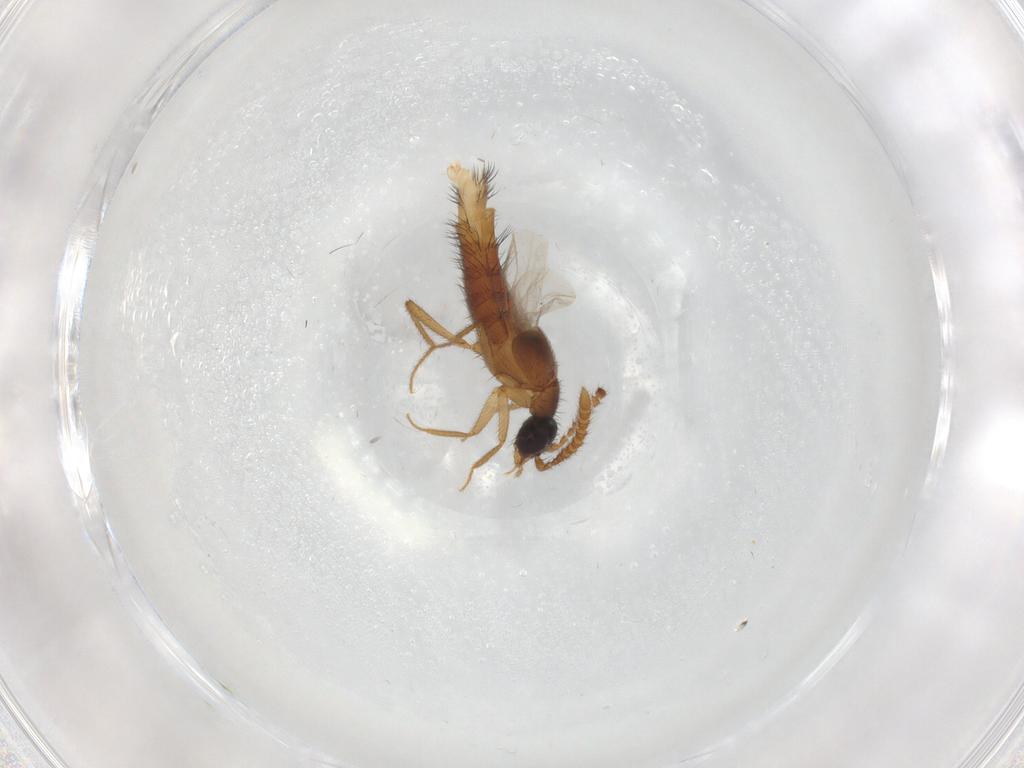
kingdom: Animalia
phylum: Arthropoda
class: Insecta
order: Coleoptera
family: Staphylinidae
